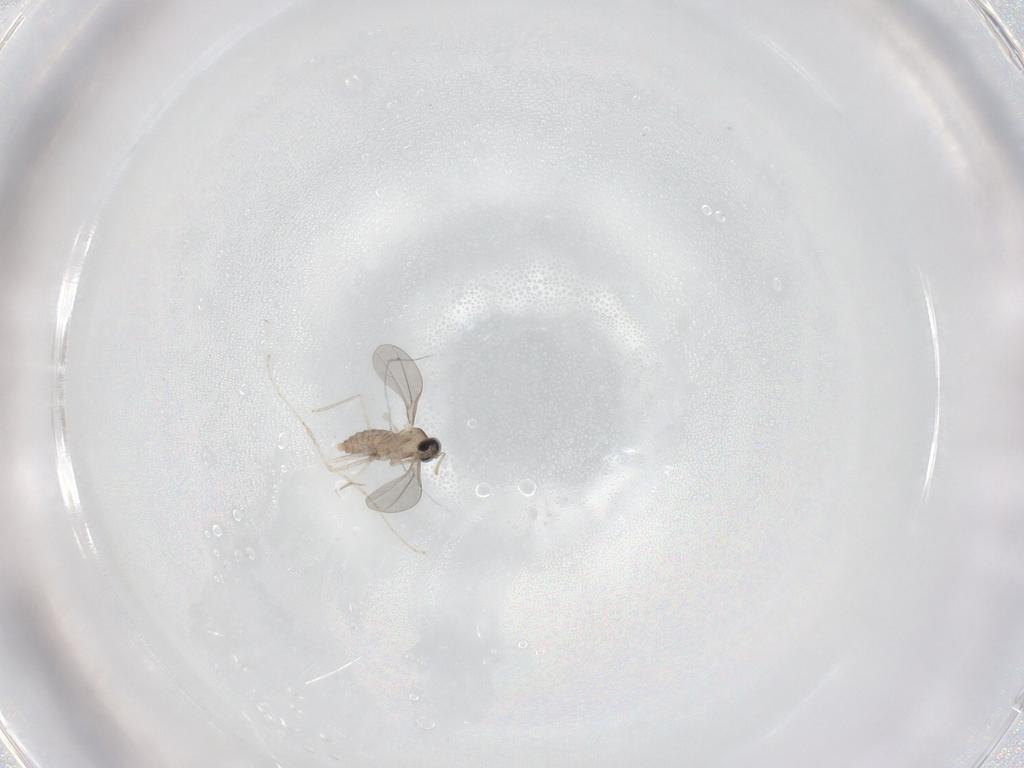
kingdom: Animalia
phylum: Arthropoda
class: Insecta
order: Diptera
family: Cecidomyiidae
